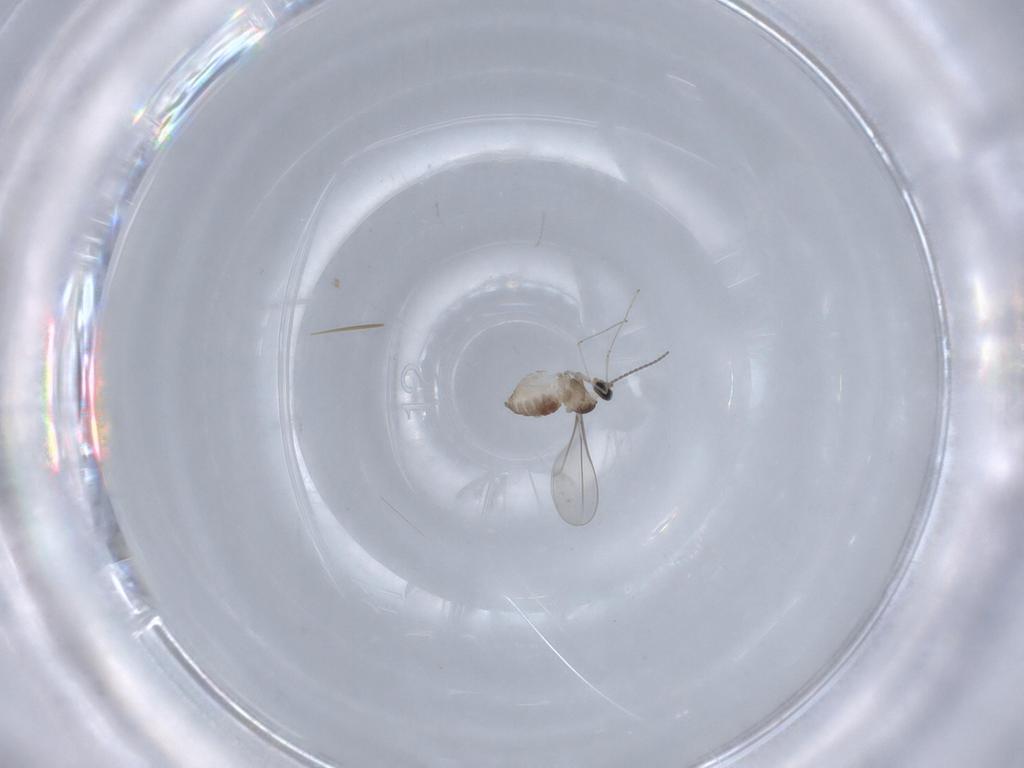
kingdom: Animalia
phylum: Arthropoda
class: Insecta
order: Diptera
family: Cecidomyiidae
